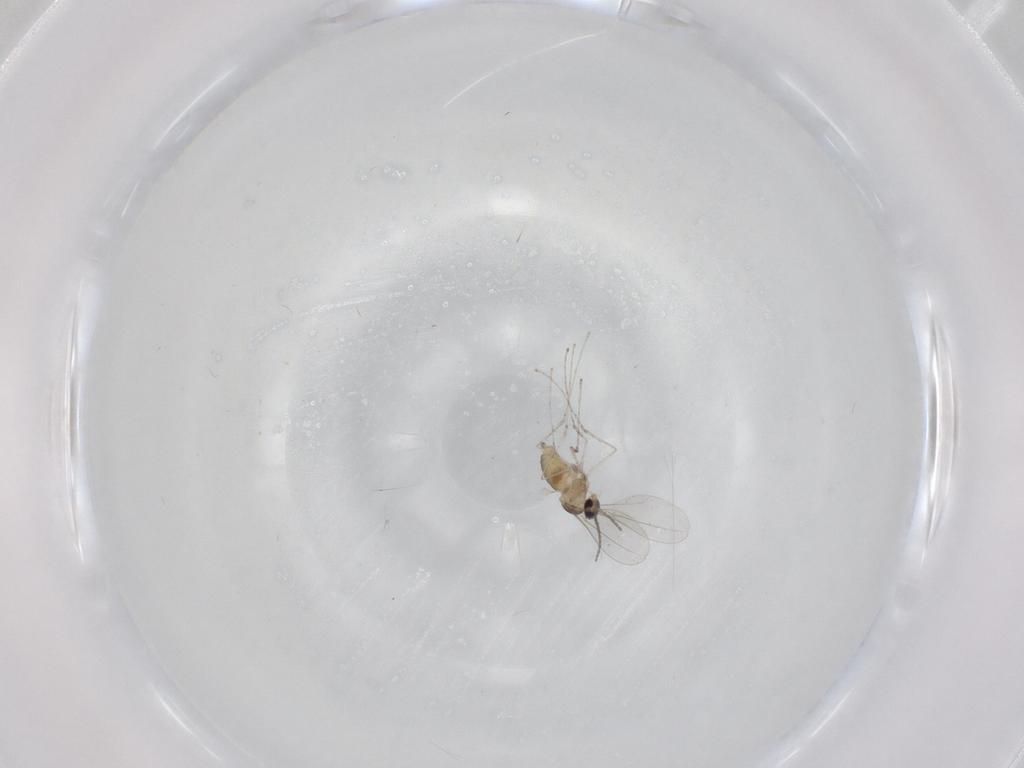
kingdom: Animalia
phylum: Arthropoda
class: Insecta
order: Diptera
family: Cecidomyiidae
